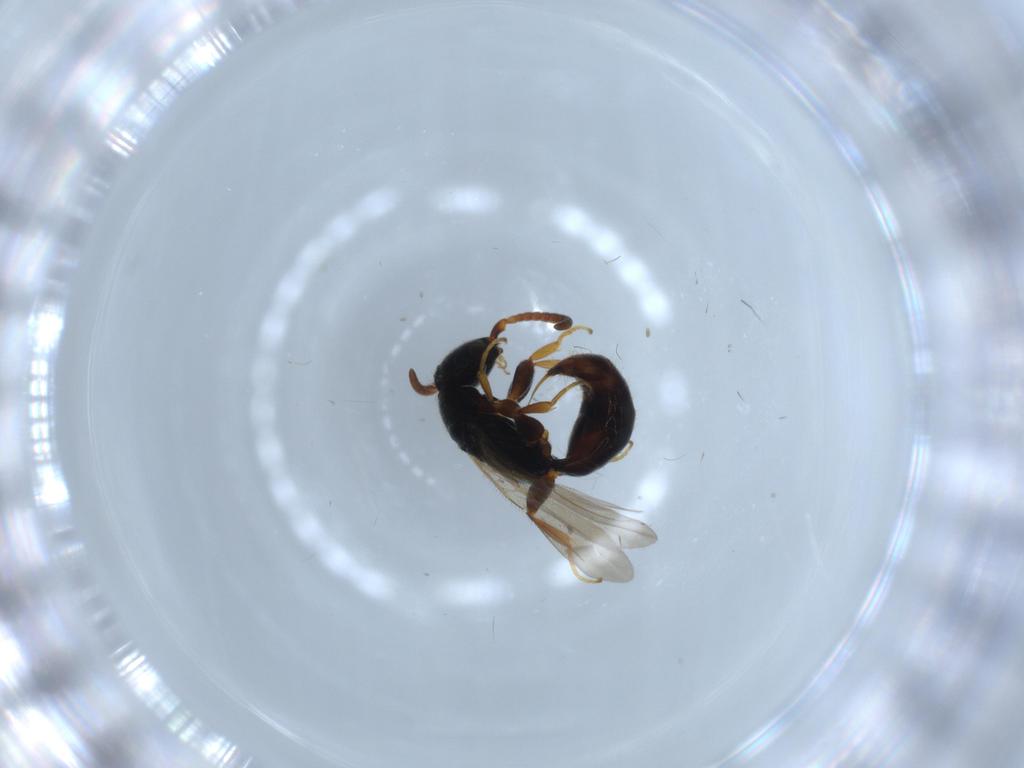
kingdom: Animalia
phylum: Arthropoda
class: Insecta
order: Hymenoptera
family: Bethylidae
